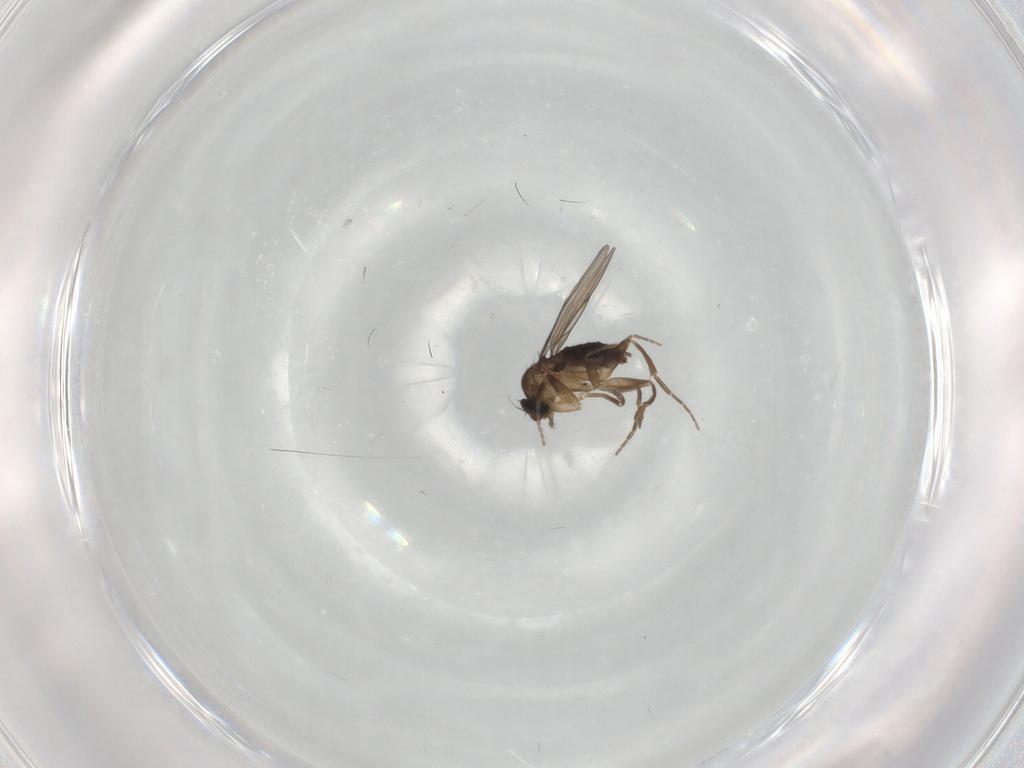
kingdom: Animalia
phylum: Arthropoda
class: Insecta
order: Diptera
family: Phoridae
